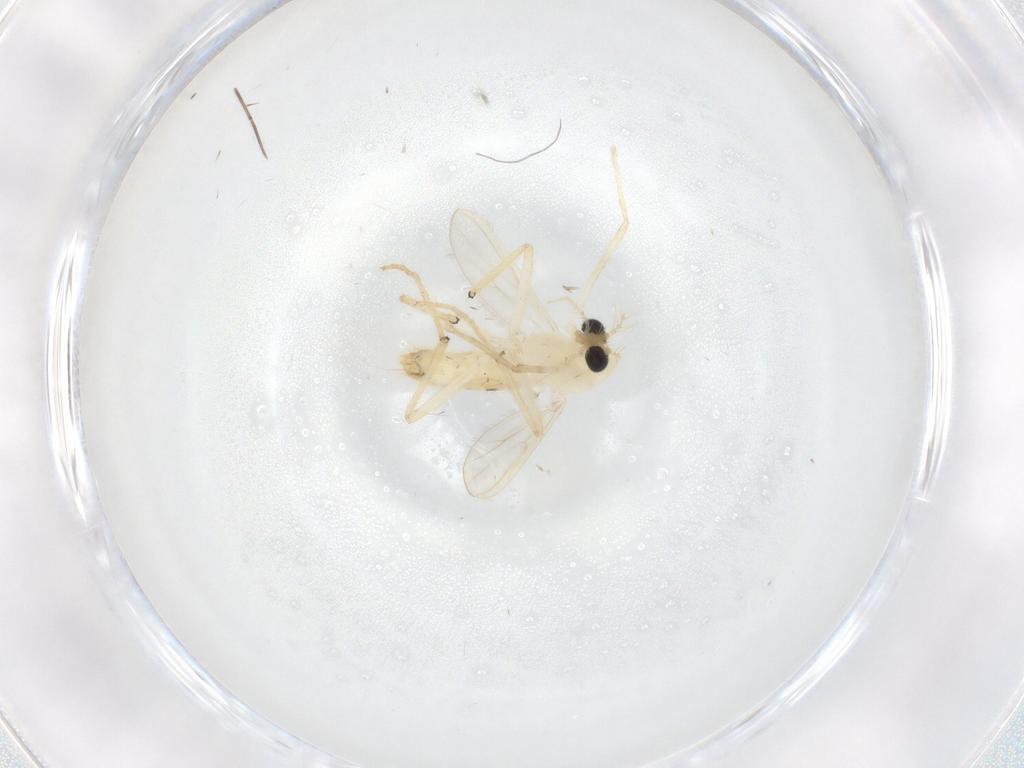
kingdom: Animalia
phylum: Arthropoda
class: Insecta
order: Diptera
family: Chironomidae
